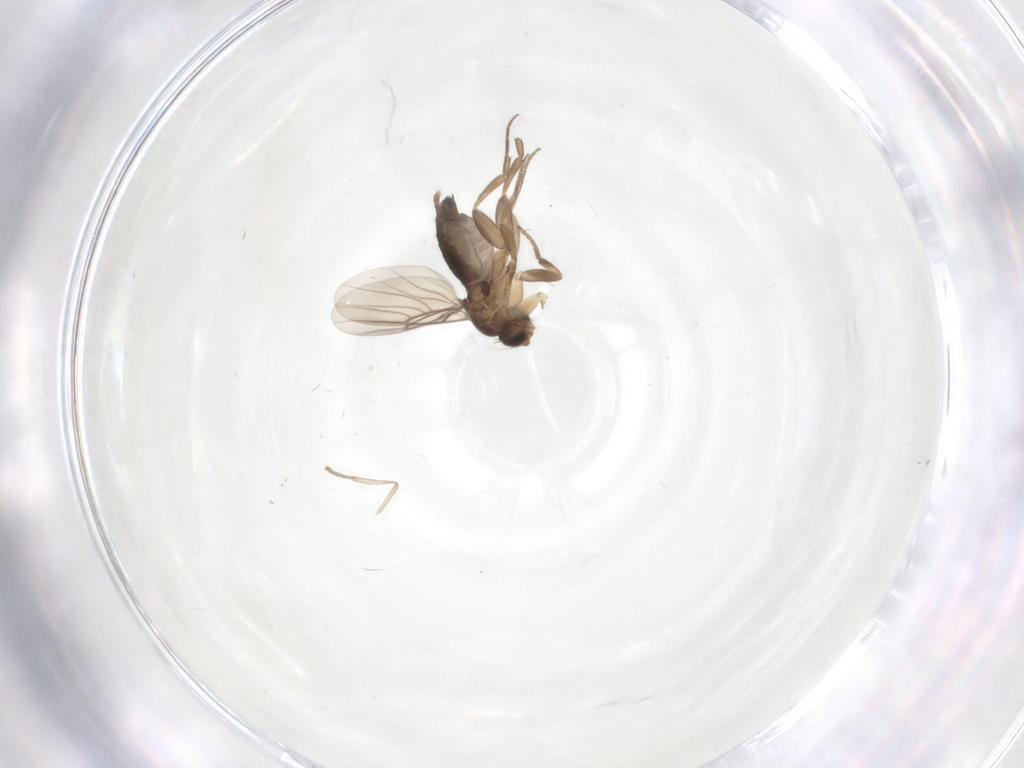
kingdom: Animalia
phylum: Arthropoda
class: Insecta
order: Diptera
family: Phoridae
